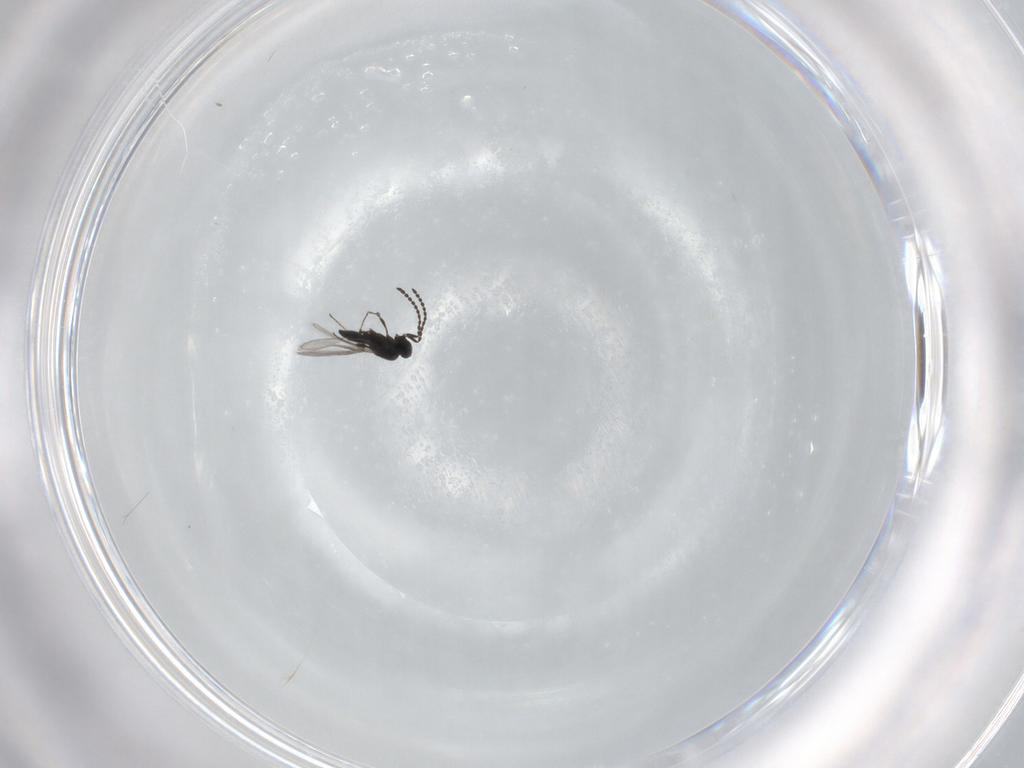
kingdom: Animalia
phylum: Arthropoda
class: Insecta
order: Hymenoptera
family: Scelionidae
